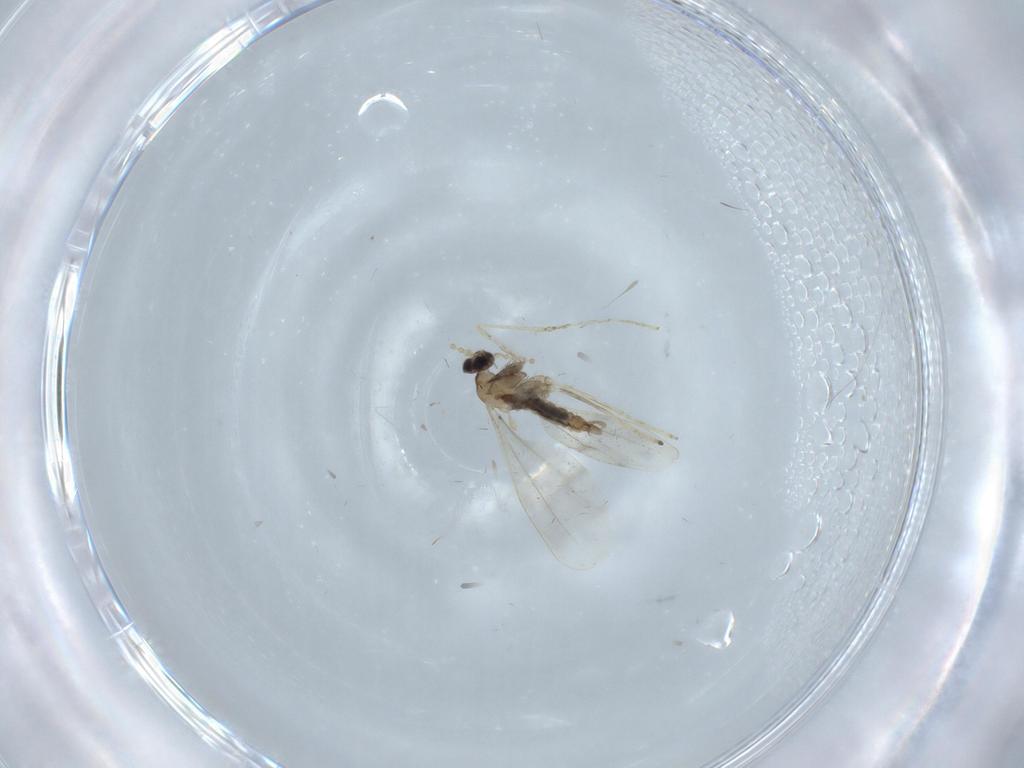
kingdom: Animalia
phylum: Arthropoda
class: Insecta
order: Diptera
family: Cecidomyiidae
